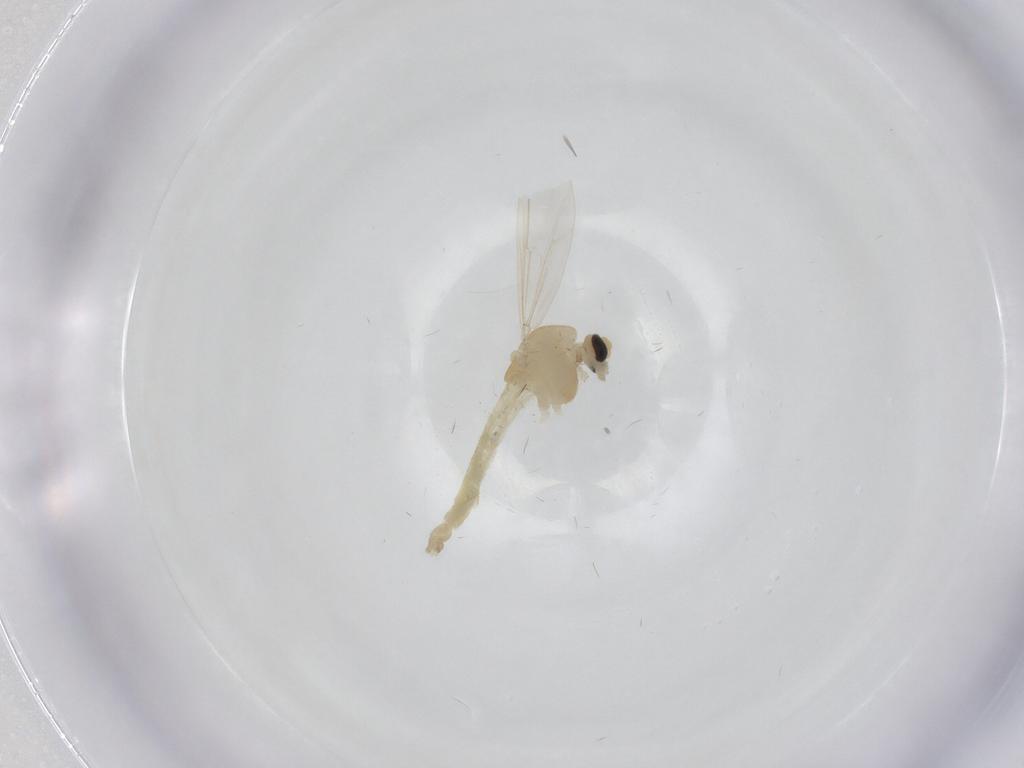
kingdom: Animalia
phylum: Arthropoda
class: Insecta
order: Diptera
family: Chironomidae
